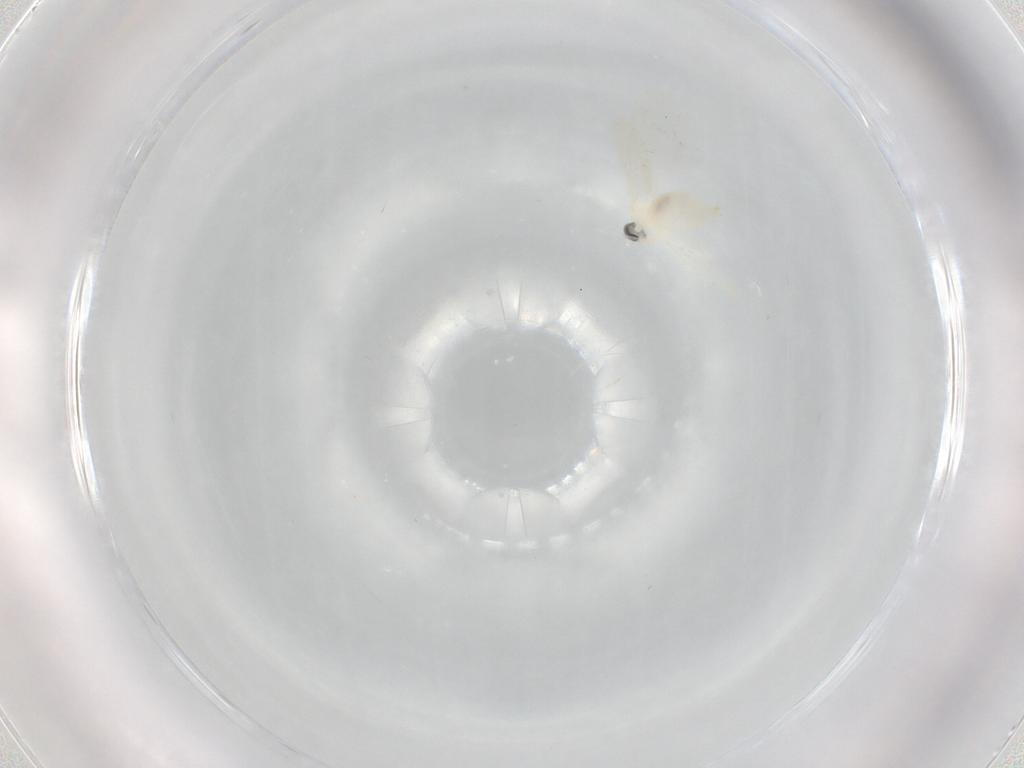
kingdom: Animalia
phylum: Arthropoda
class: Insecta
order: Diptera
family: Cecidomyiidae
